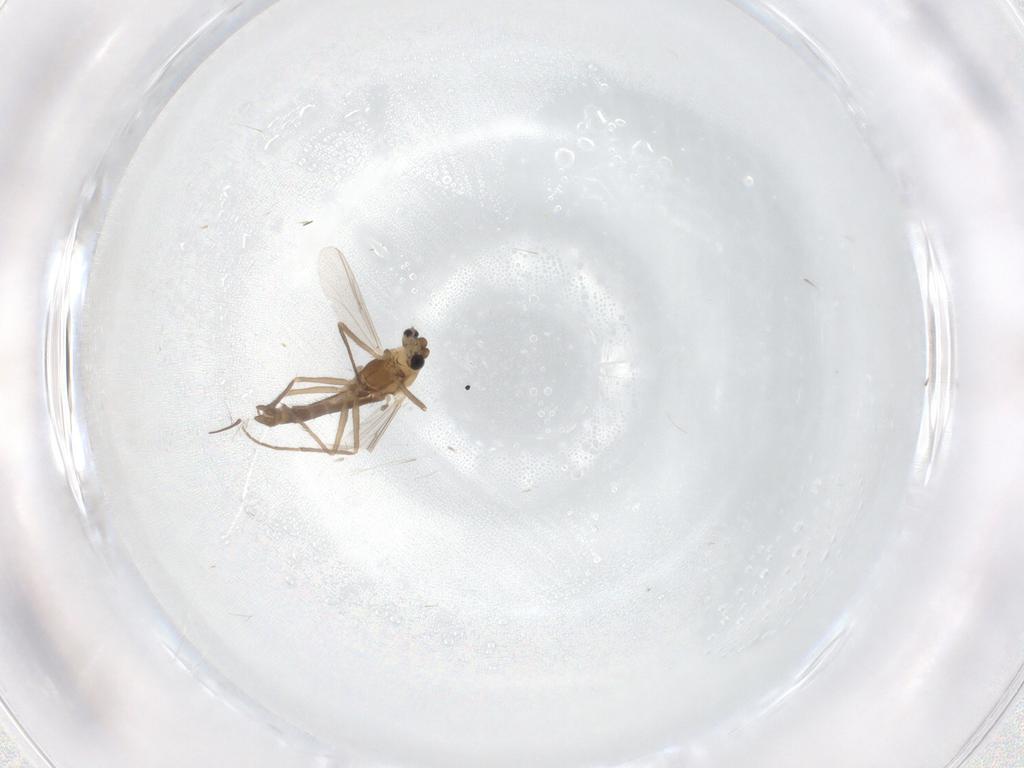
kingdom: Animalia
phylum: Arthropoda
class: Insecta
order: Diptera
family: Chironomidae
